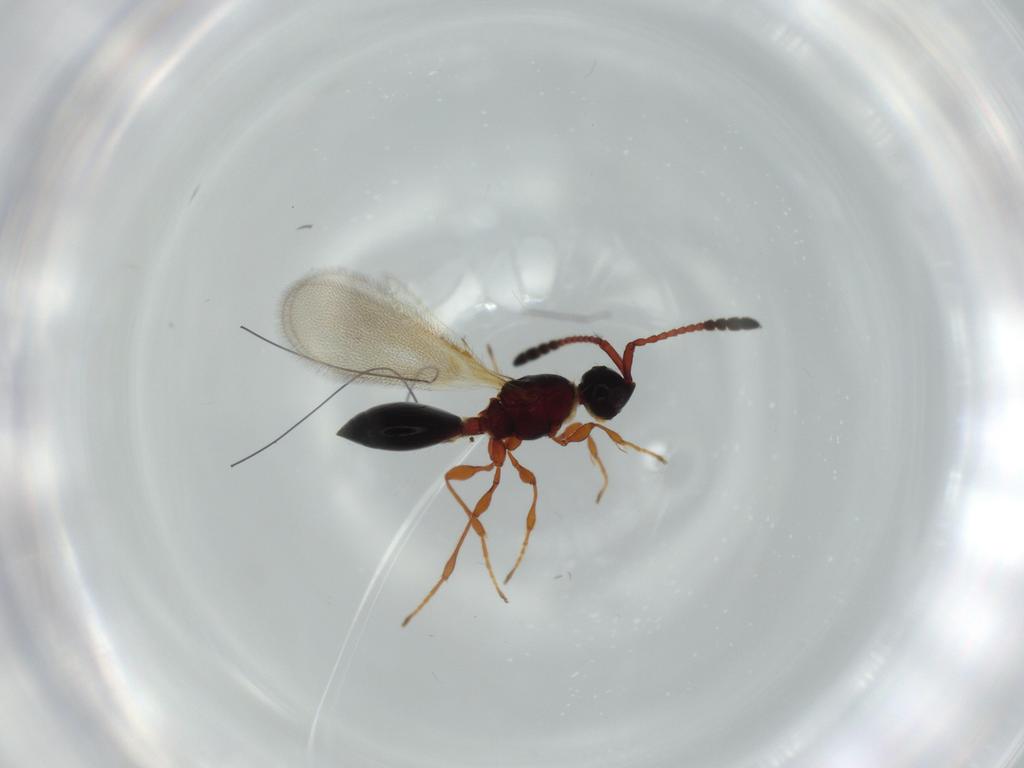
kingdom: Animalia
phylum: Arthropoda
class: Insecta
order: Hymenoptera
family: Diapriidae
